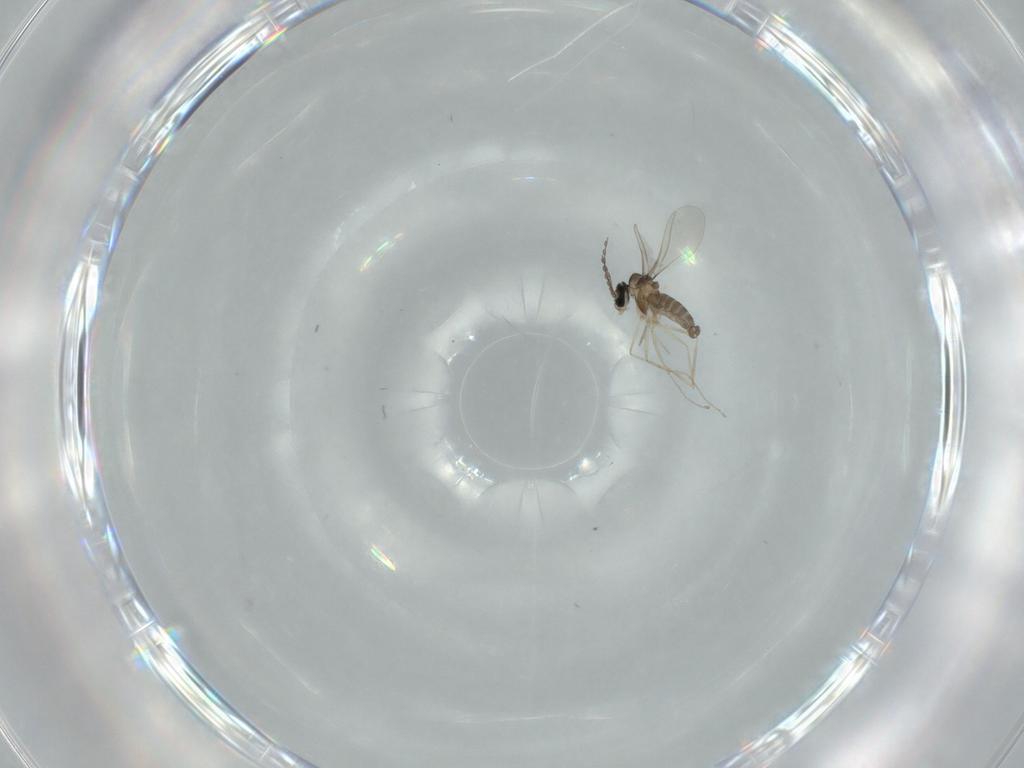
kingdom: Animalia
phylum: Arthropoda
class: Insecta
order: Diptera
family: Cecidomyiidae
